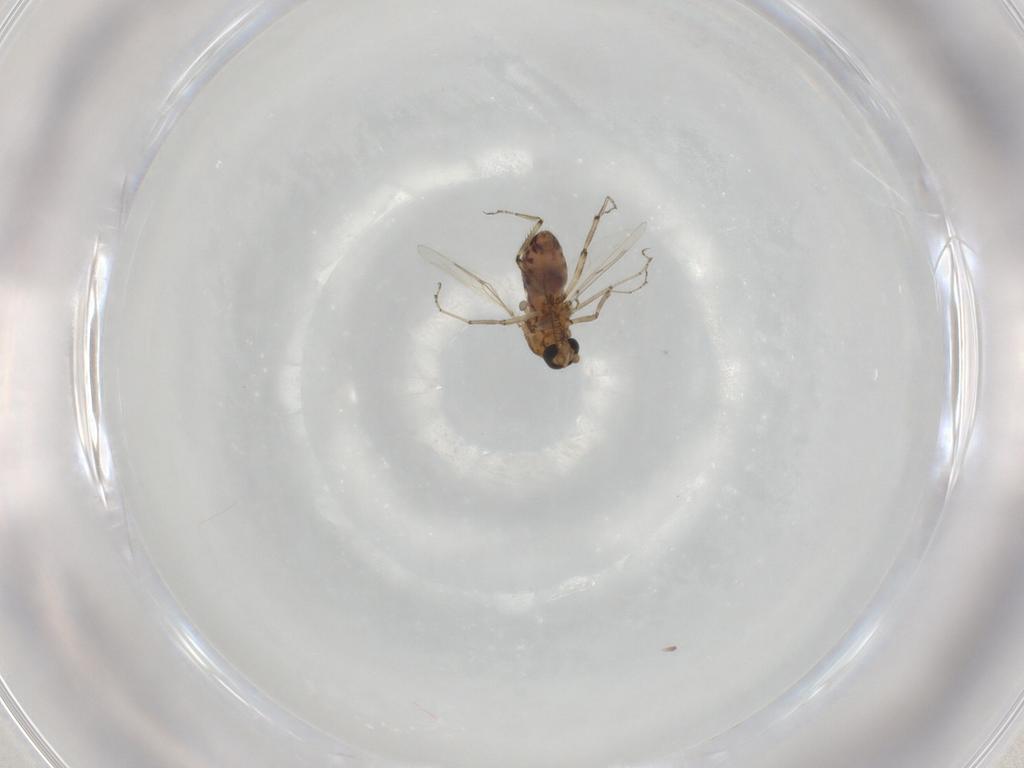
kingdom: Animalia
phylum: Arthropoda
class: Insecta
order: Diptera
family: Ceratopogonidae
